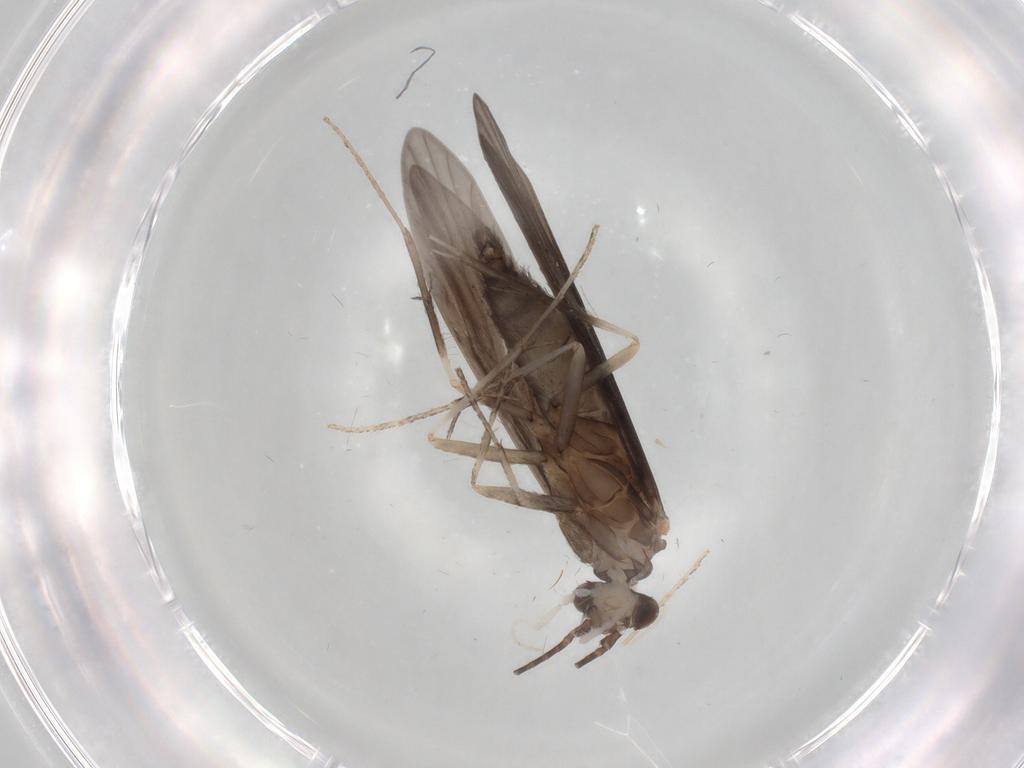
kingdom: Animalia
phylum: Arthropoda
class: Insecta
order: Trichoptera
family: Xiphocentronidae
